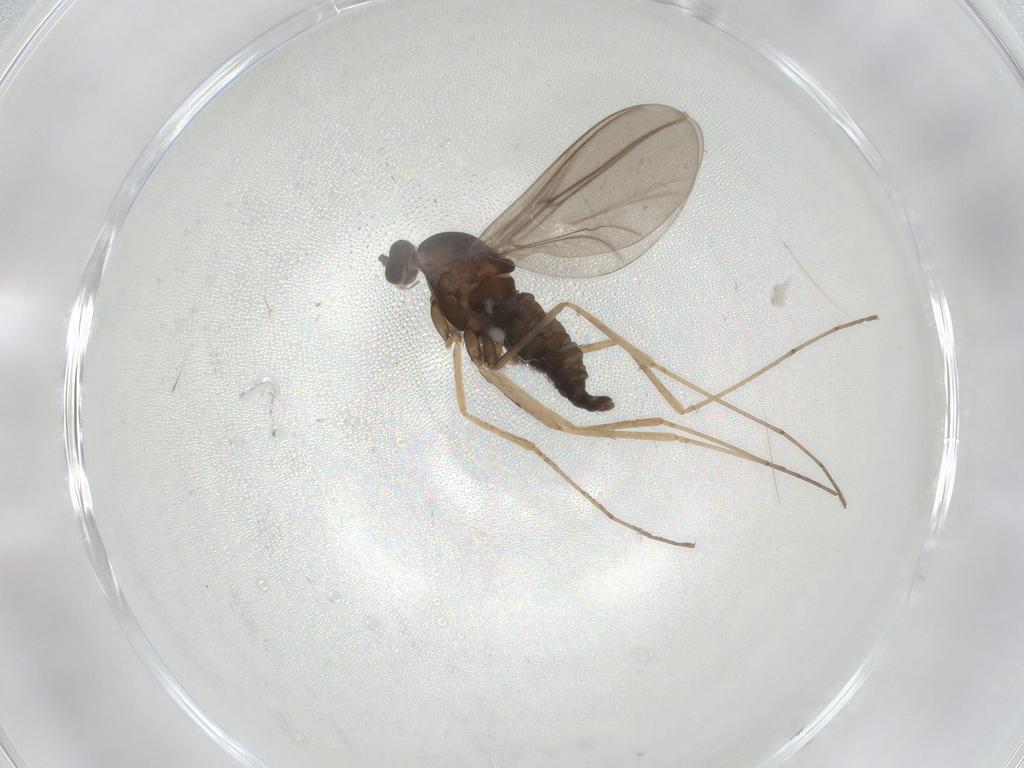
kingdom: Animalia
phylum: Arthropoda
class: Insecta
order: Diptera
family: Cecidomyiidae
